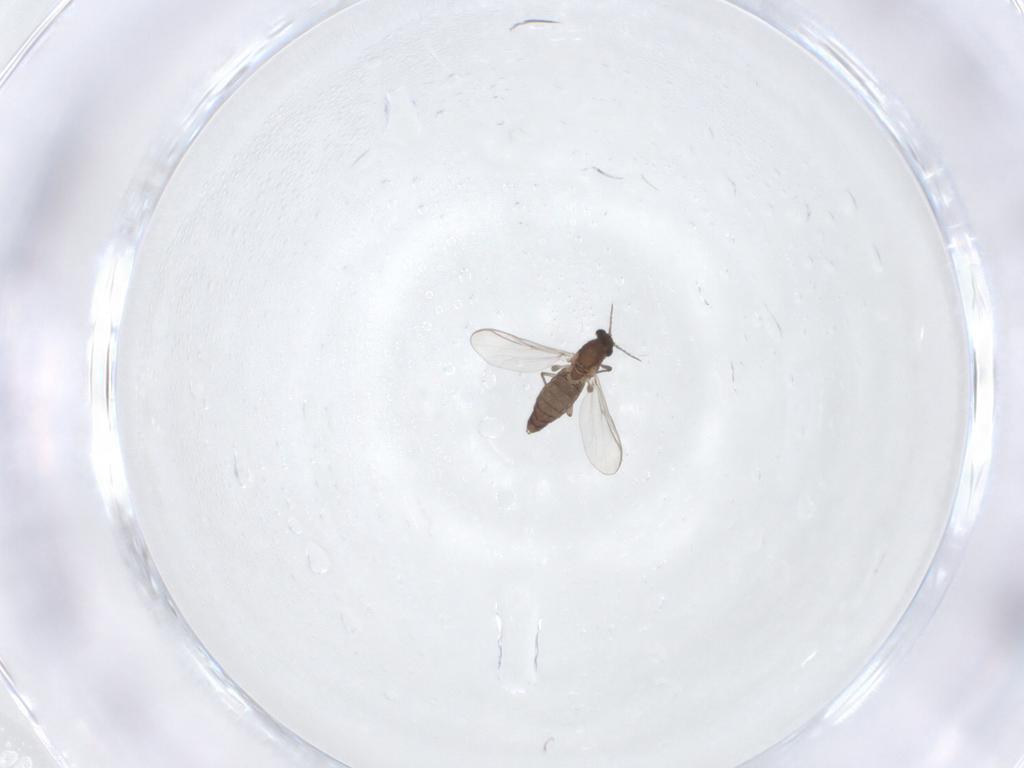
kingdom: Animalia
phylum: Arthropoda
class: Insecta
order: Diptera
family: Chironomidae
